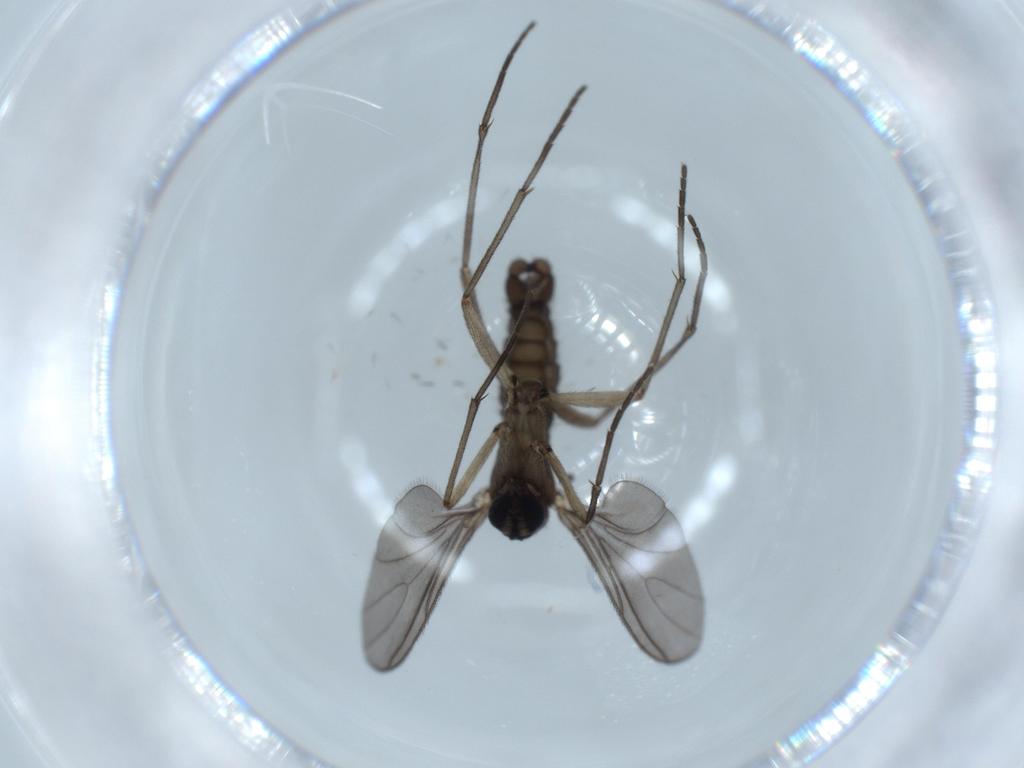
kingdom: Animalia
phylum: Arthropoda
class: Insecta
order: Diptera
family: Sciaridae
